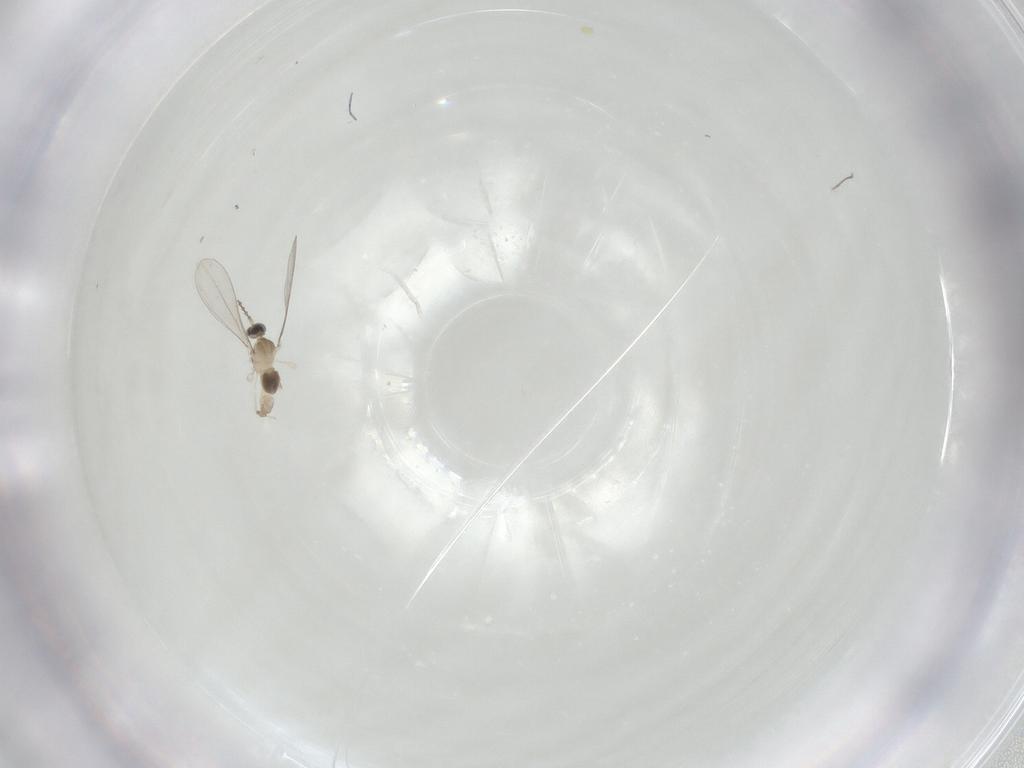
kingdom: Animalia
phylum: Arthropoda
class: Insecta
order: Diptera
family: Cecidomyiidae
